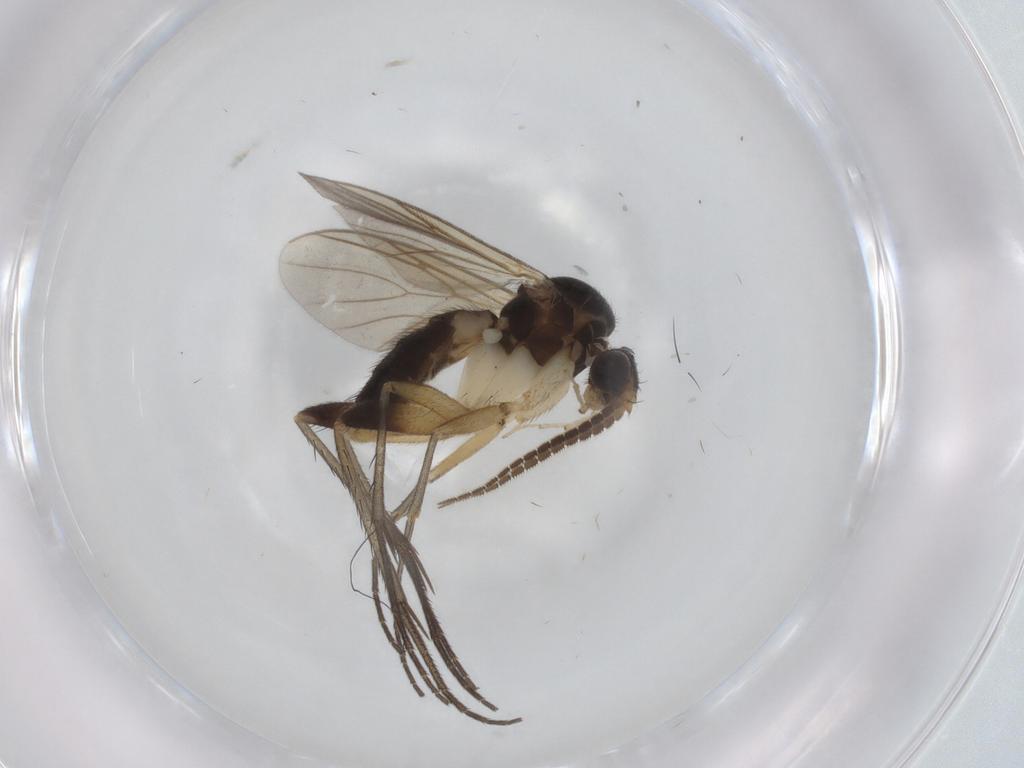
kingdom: Animalia
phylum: Arthropoda
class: Insecta
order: Diptera
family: Mycetophilidae
